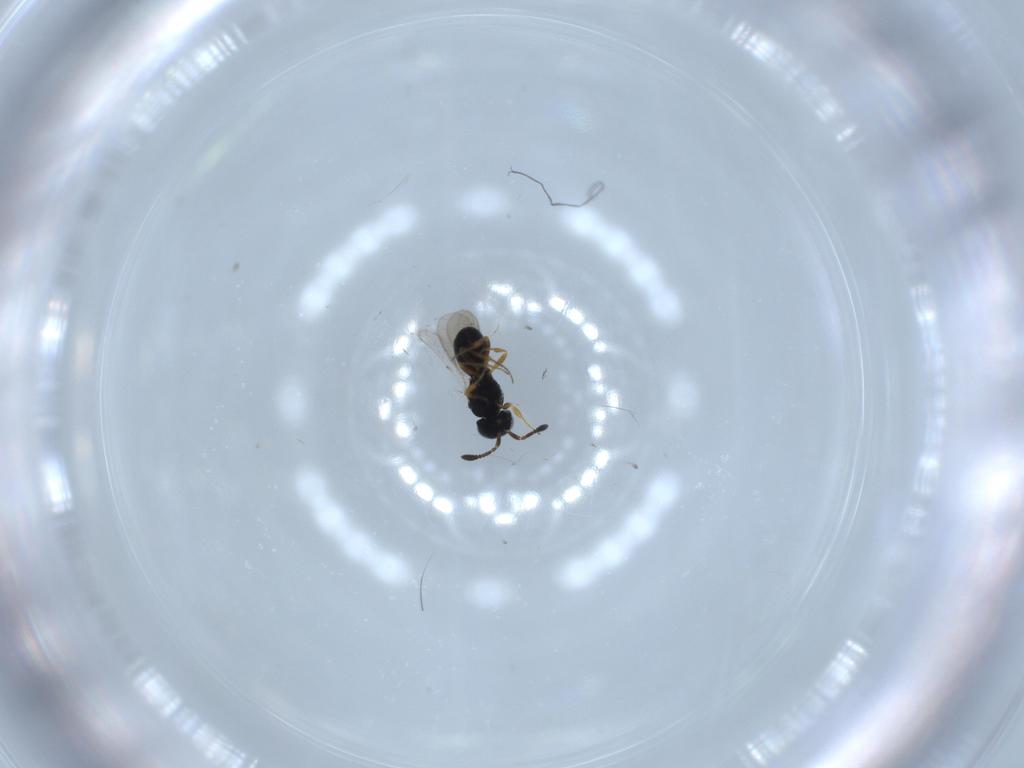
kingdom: Animalia
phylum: Arthropoda
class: Insecta
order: Hymenoptera
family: Scelionidae
